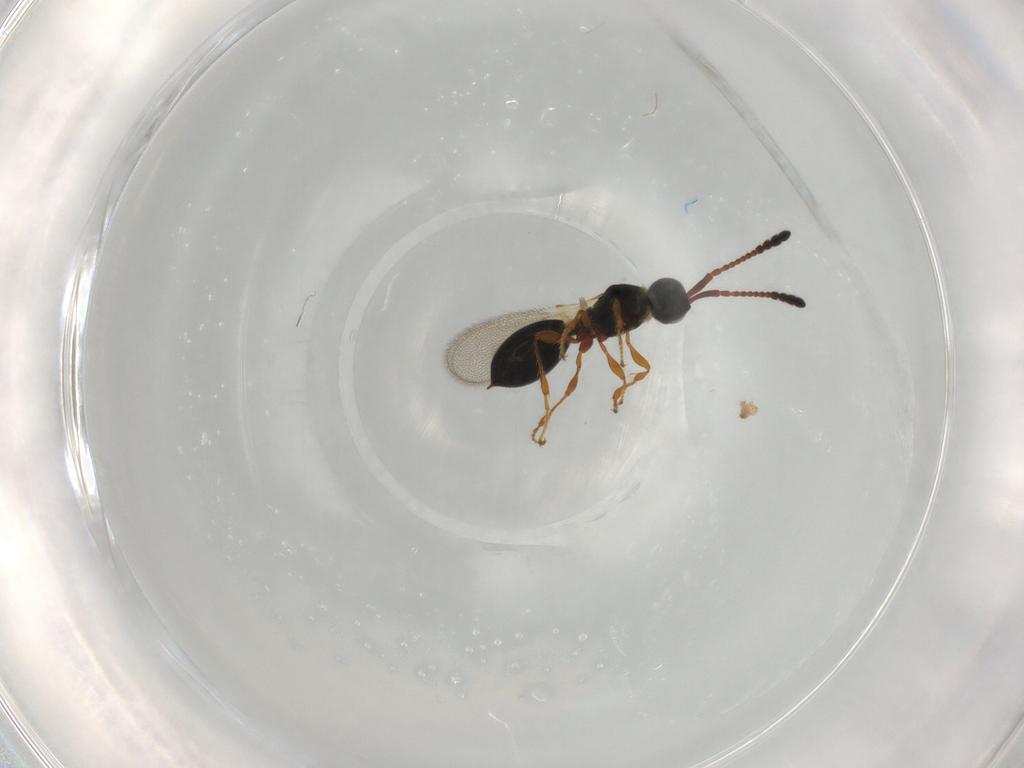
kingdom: Animalia
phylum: Arthropoda
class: Insecta
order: Hymenoptera
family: Diapriidae
